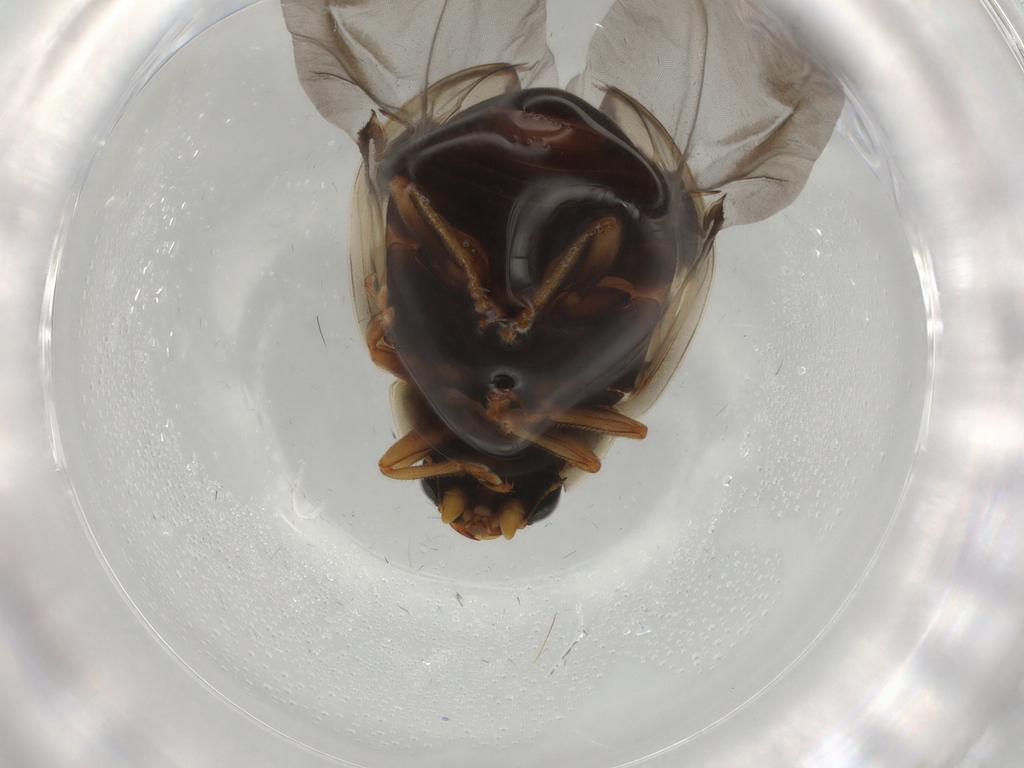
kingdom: Animalia
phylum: Arthropoda
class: Insecta
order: Coleoptera
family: Coccinellidae
